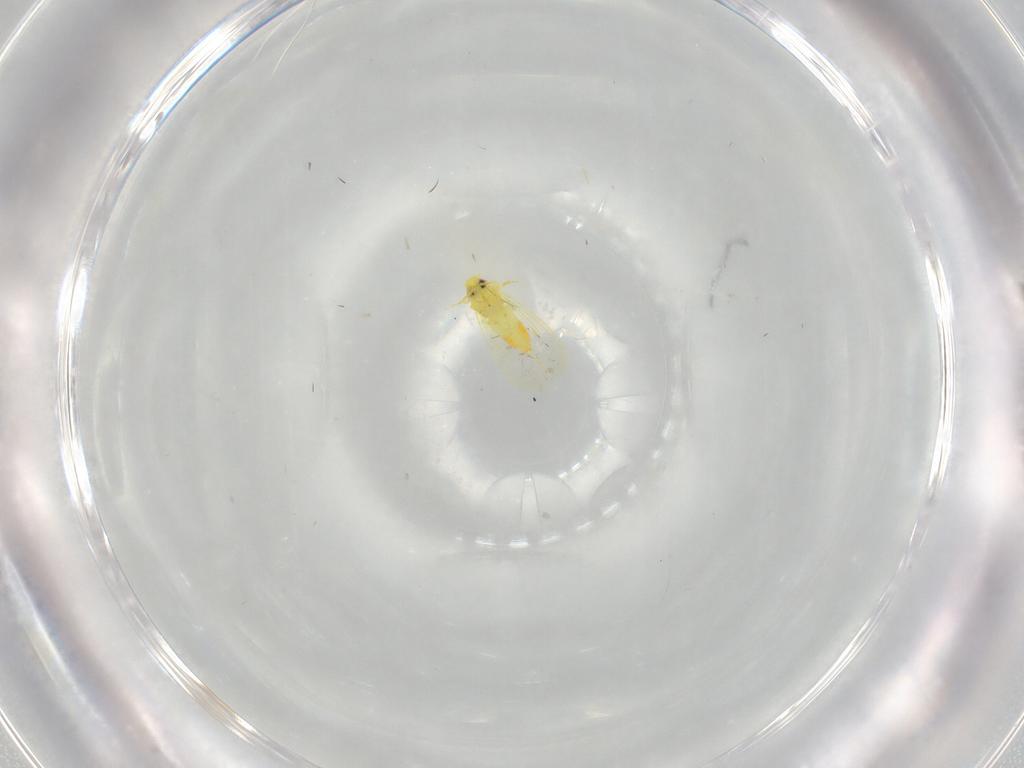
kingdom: Animalia
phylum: Arthropoda
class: Insecta
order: Hemiptera
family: Aleyrodidae
